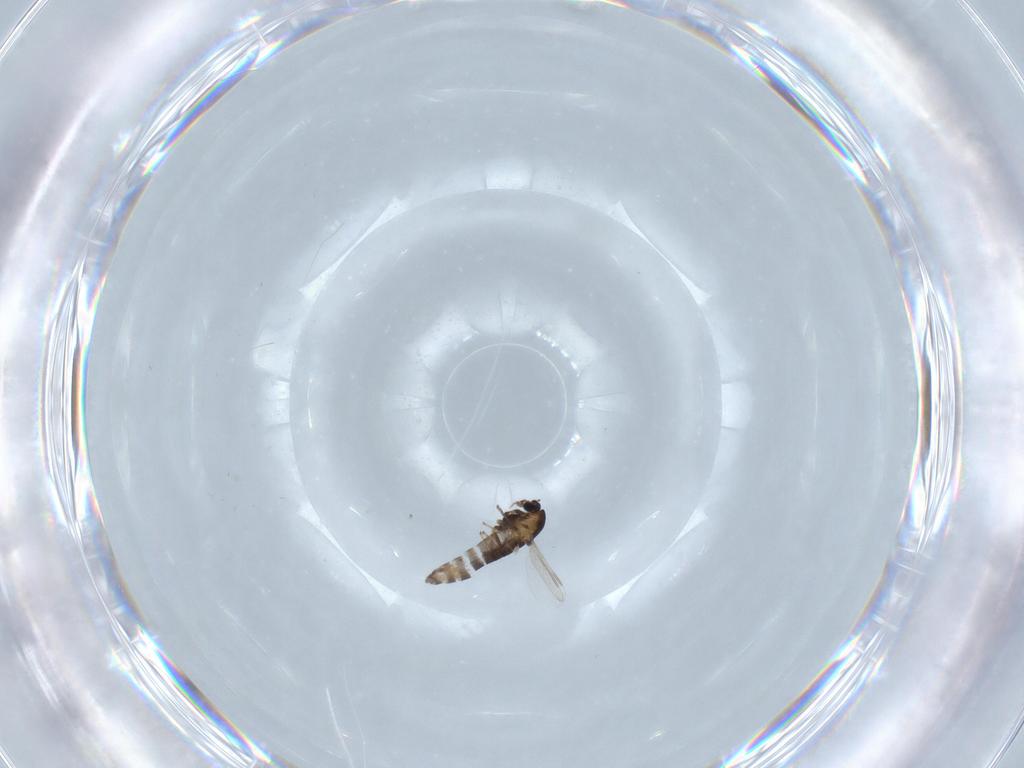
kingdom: Animalia
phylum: Arthropoda
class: Insecta
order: Diptera
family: Chironomidae
